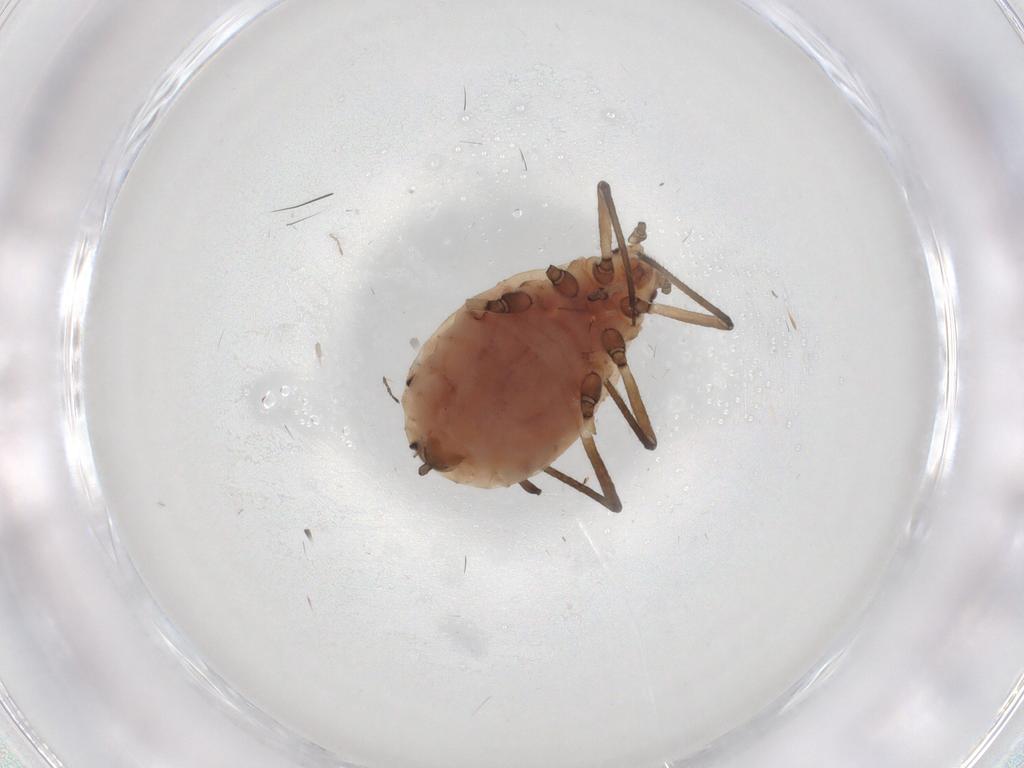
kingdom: Animalia
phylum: Arthropoda
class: Insecta
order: Hemiptera
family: Aphididae
